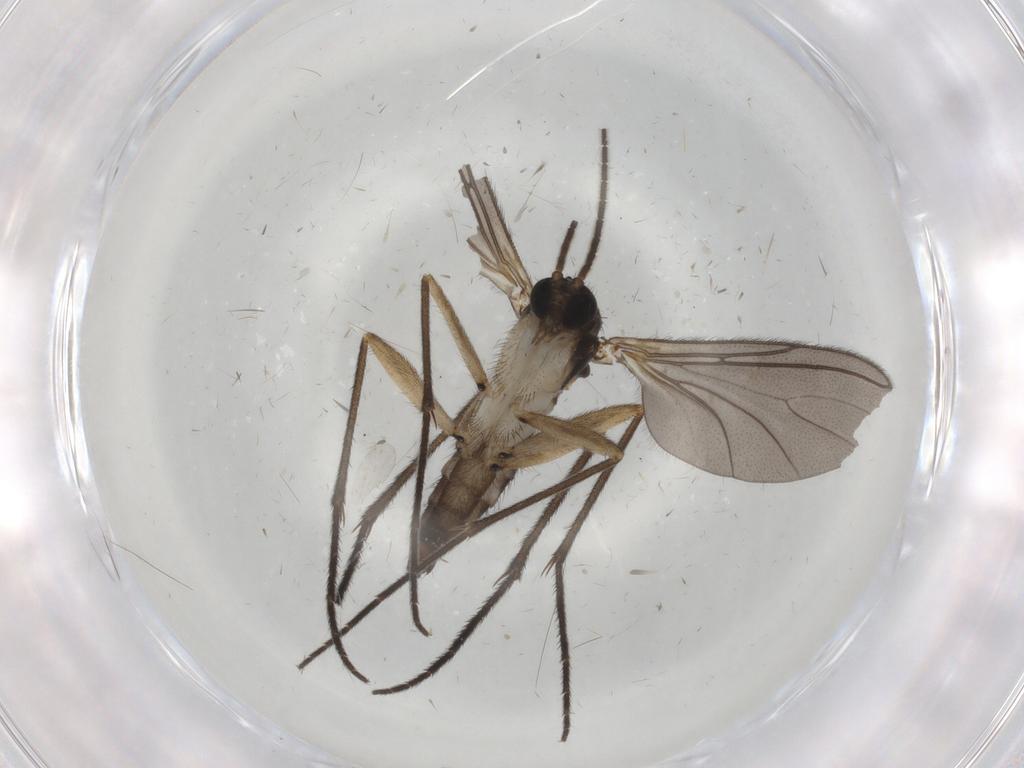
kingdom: Animalia
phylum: Arthropoda
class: Insecta
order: Diptera
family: Sciaridae
